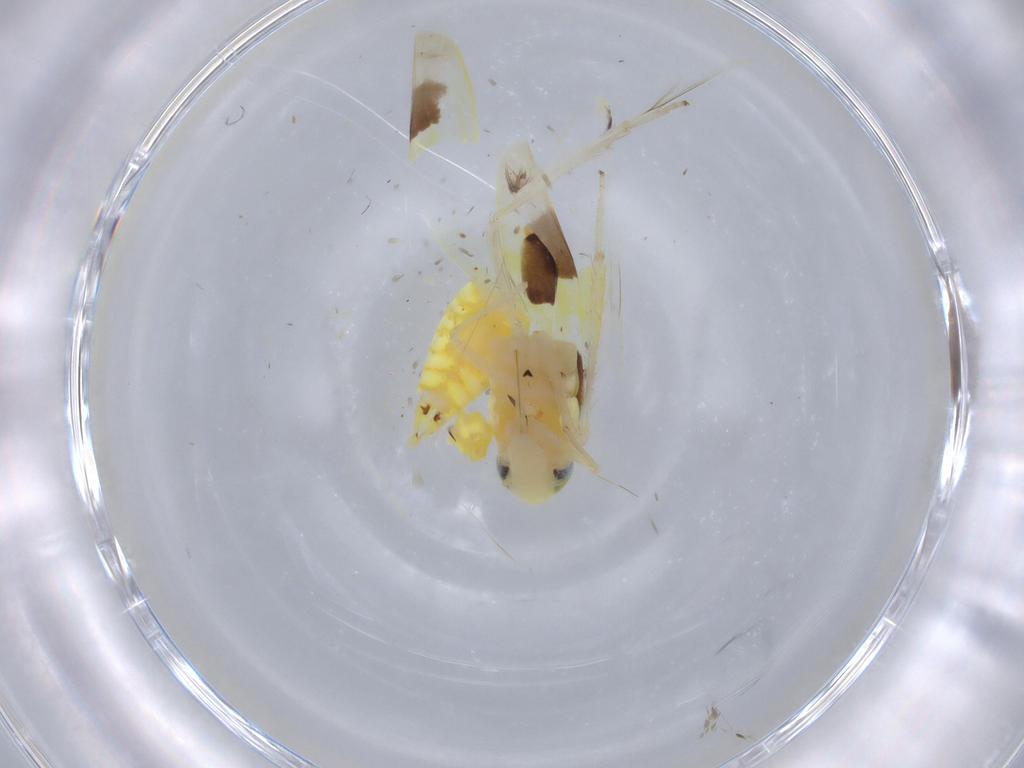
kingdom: Animalia
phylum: Arthropoda
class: Insecta
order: Hemiptera
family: Cicadellidae
